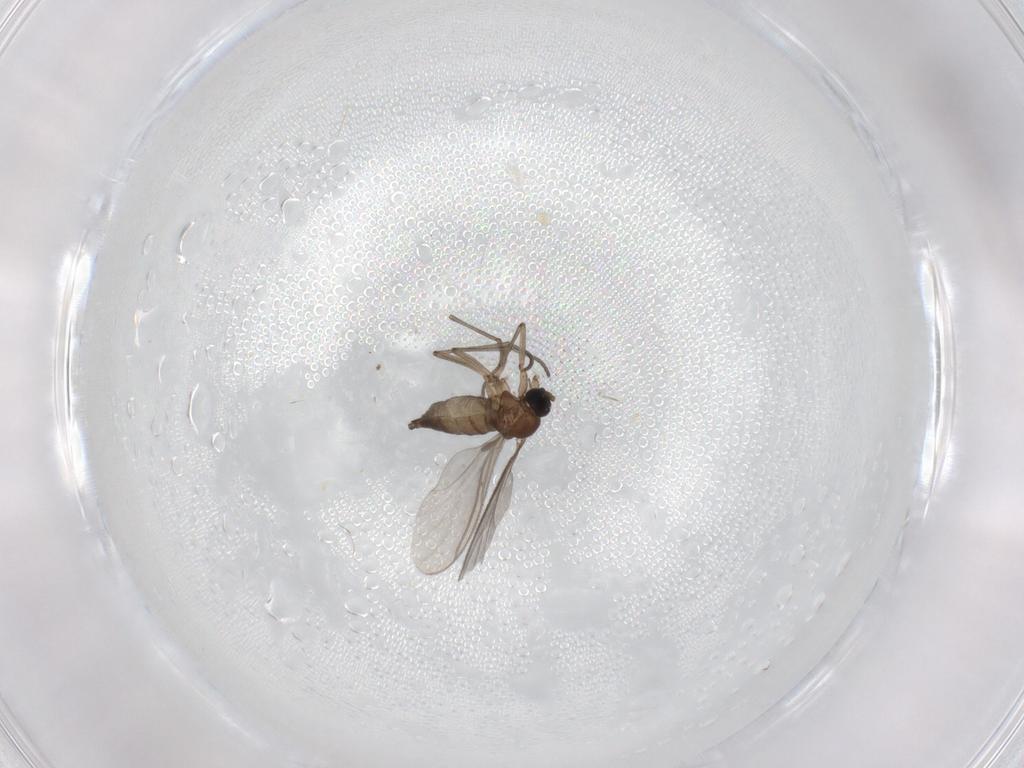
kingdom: Animalia
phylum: Arthropoda
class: Insecta
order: Diptera
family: Sciaridae
